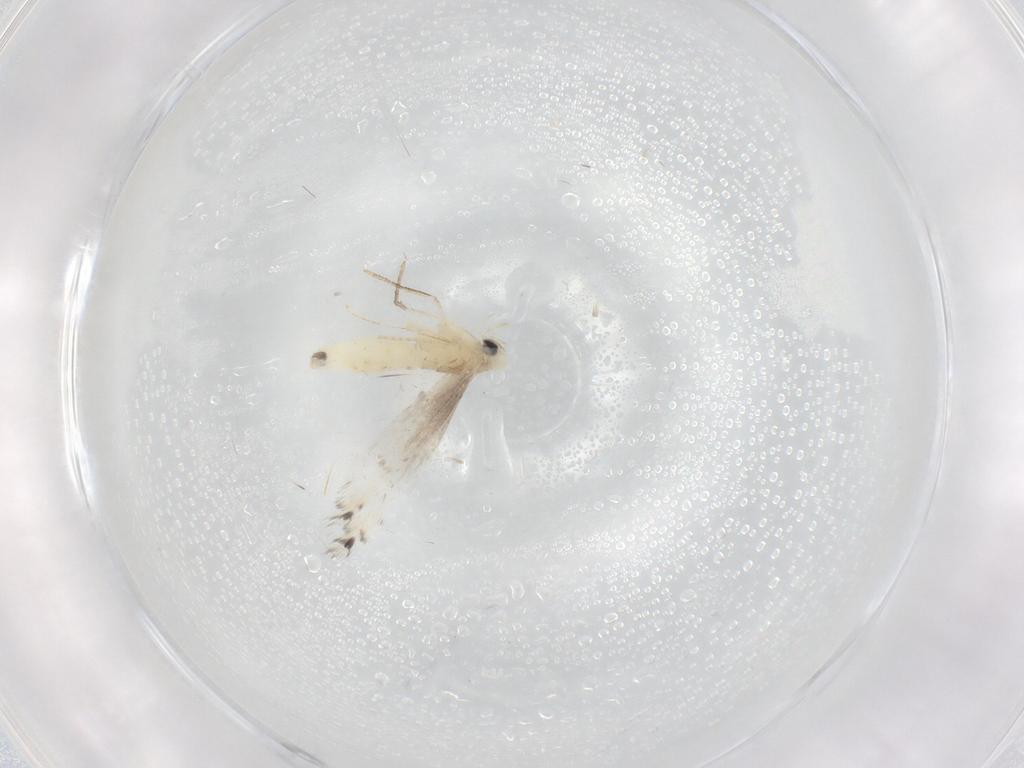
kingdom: Animalia
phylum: Arthropoda
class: Insecta
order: Lepidoptera
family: Gracillariidae
